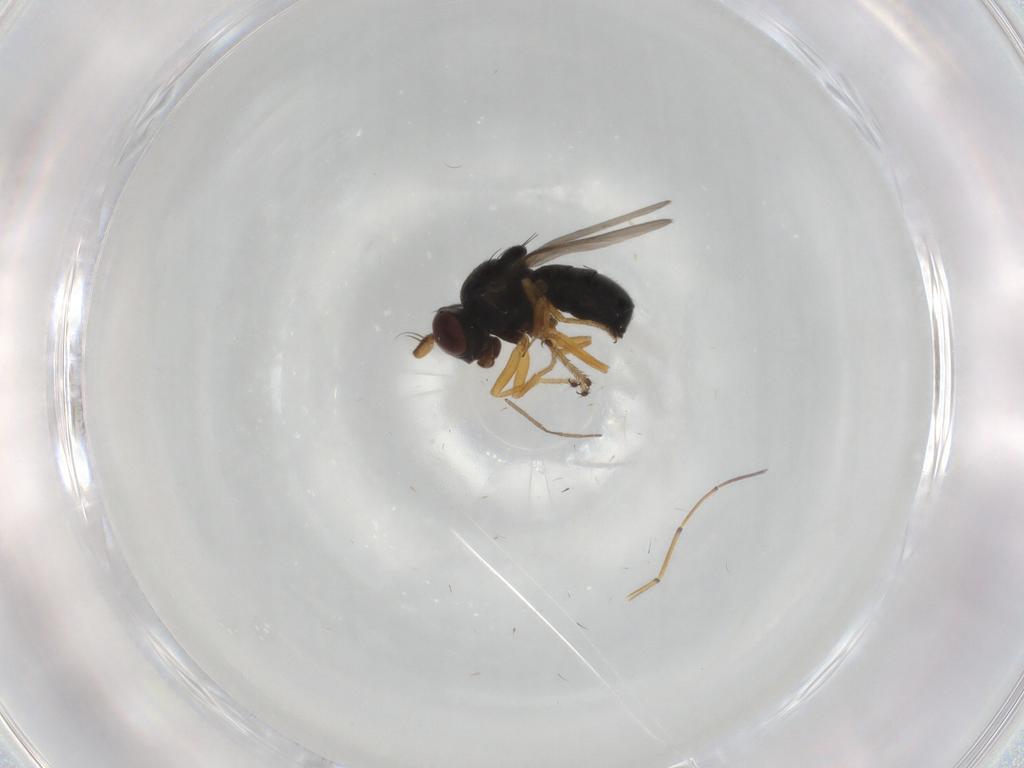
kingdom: Animalia
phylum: Arthropoda
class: Insecta
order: Diptera
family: Ephydridae
